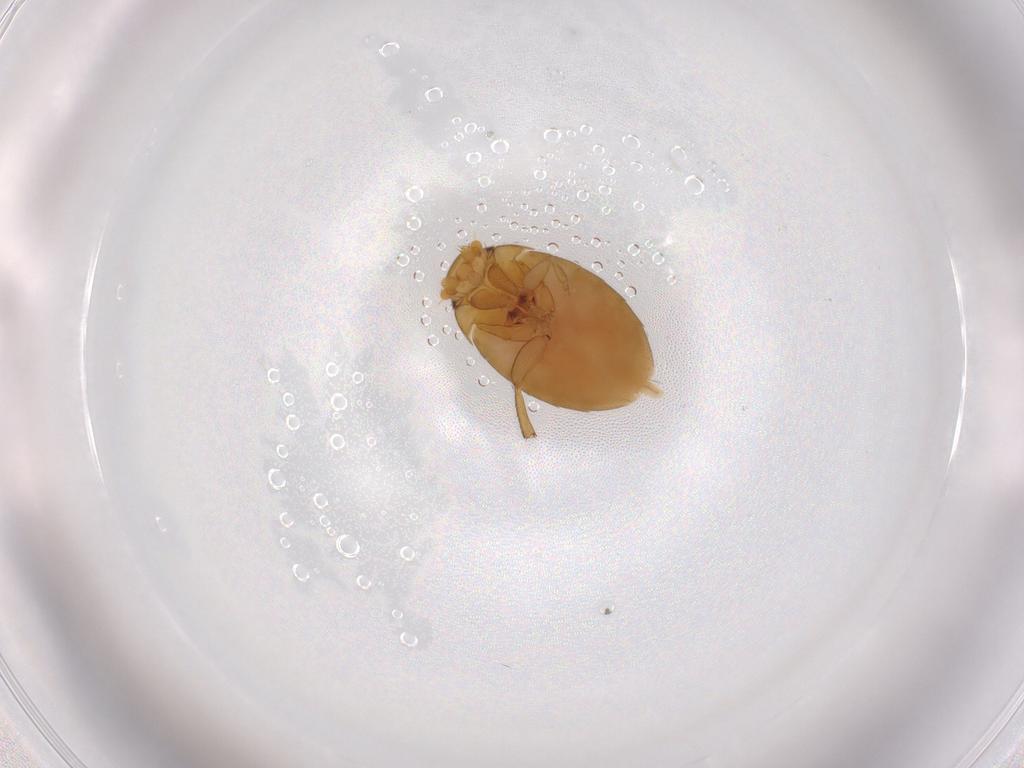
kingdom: Animalia
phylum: Arthropoda
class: Insecta
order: Diptera
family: Phoridae
